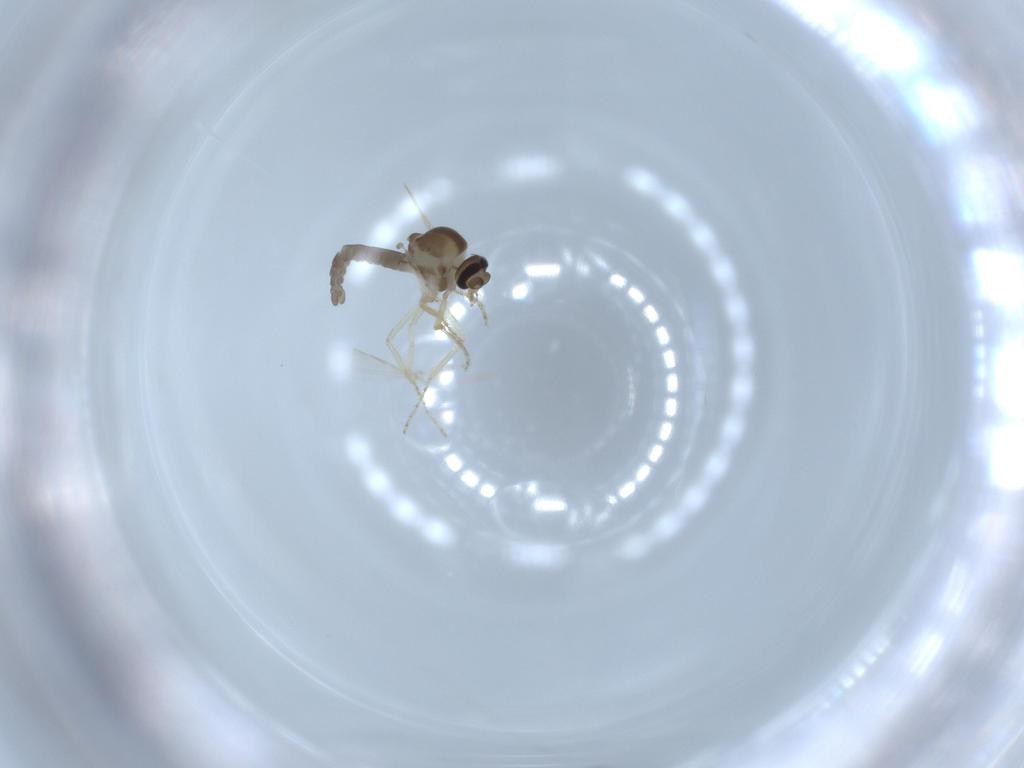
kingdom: Animalia
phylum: Arthropoda
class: Insecta
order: Diptera
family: Ceratopogonidae
